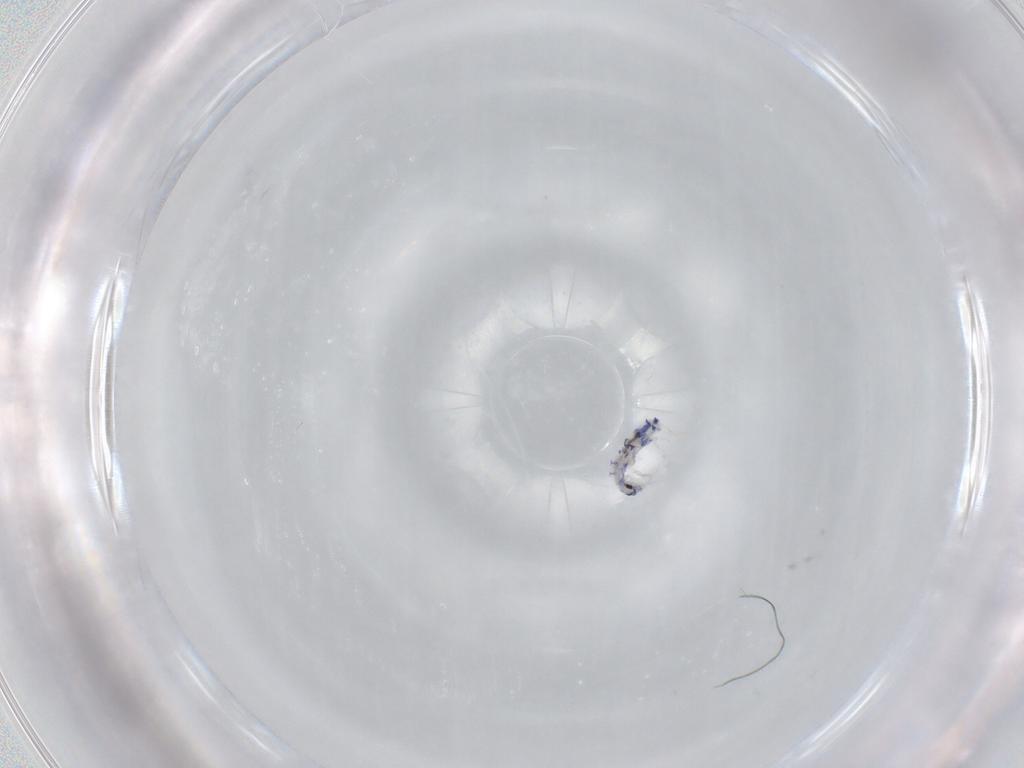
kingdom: Animalia
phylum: Arthropoda
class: Collembola
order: Entomobryomorpha
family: Entomobryidae
